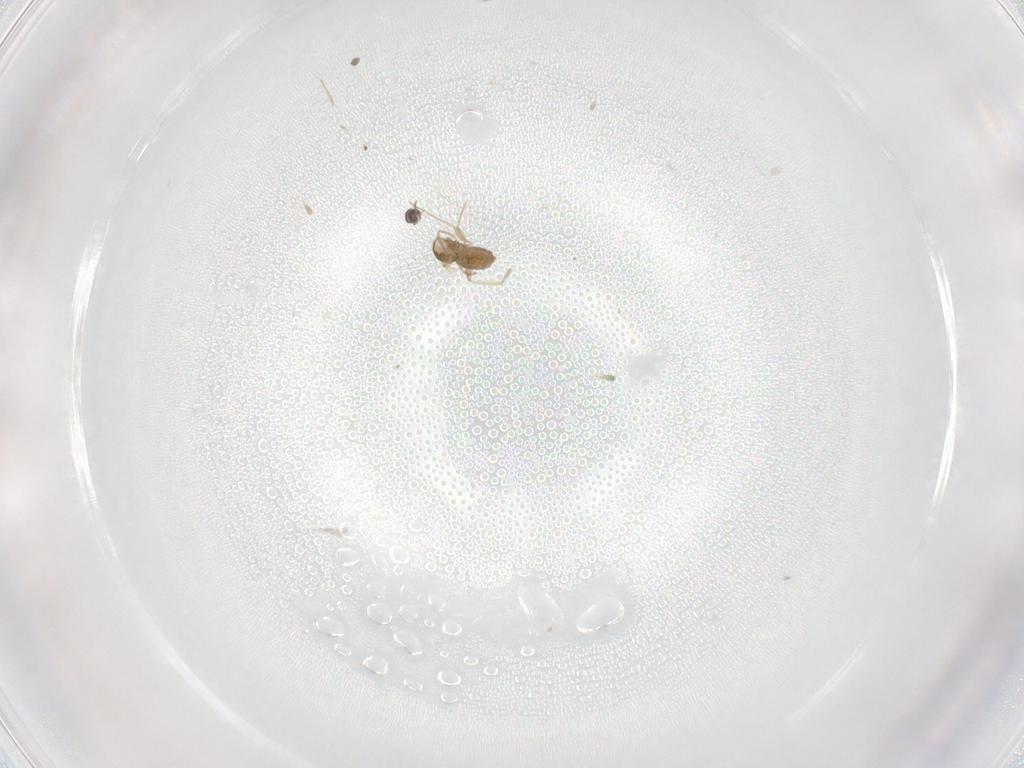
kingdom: Animalia
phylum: Arthropoda
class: Insecta
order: Diptera
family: Cecidomyiidae
